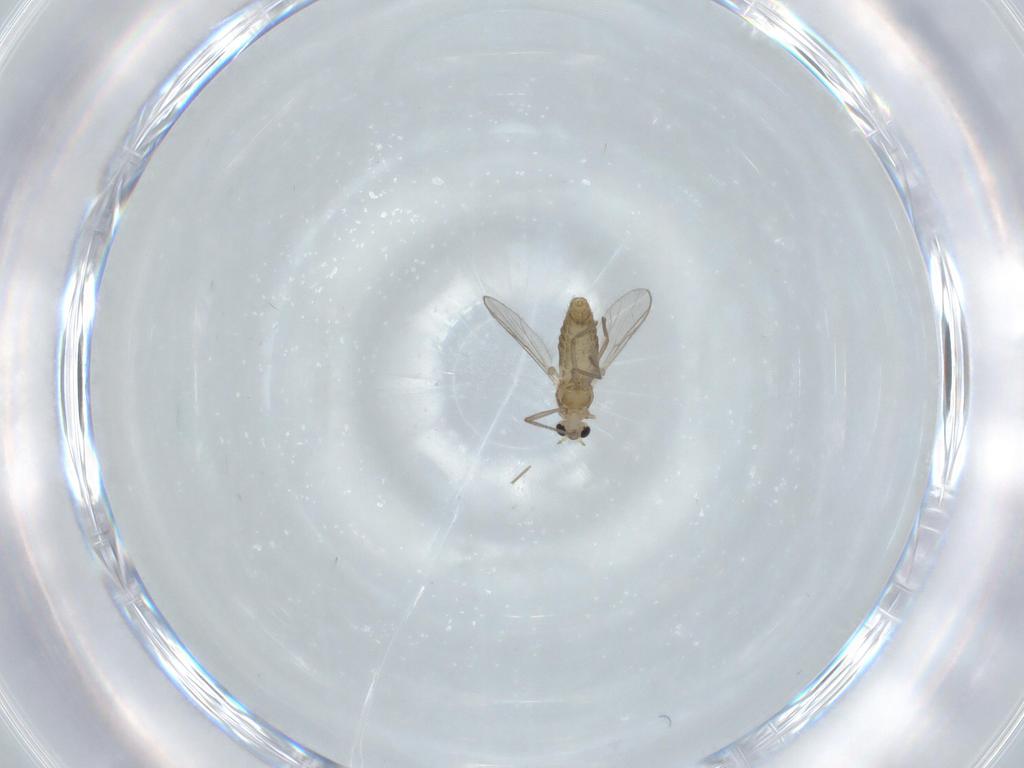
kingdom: Animalia
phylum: Arthropoda
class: Insecta
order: Diptera
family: Chironomidae
